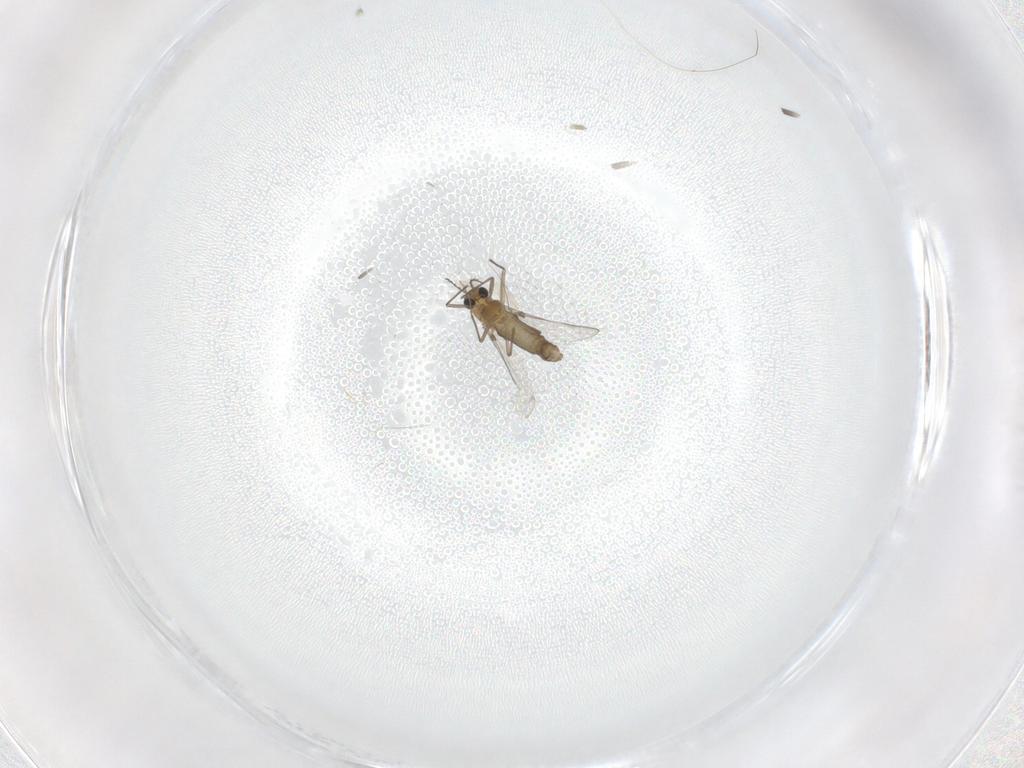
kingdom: Animalia
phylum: Arthropoda
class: Insecta
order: Diptera
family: Chironomidae
